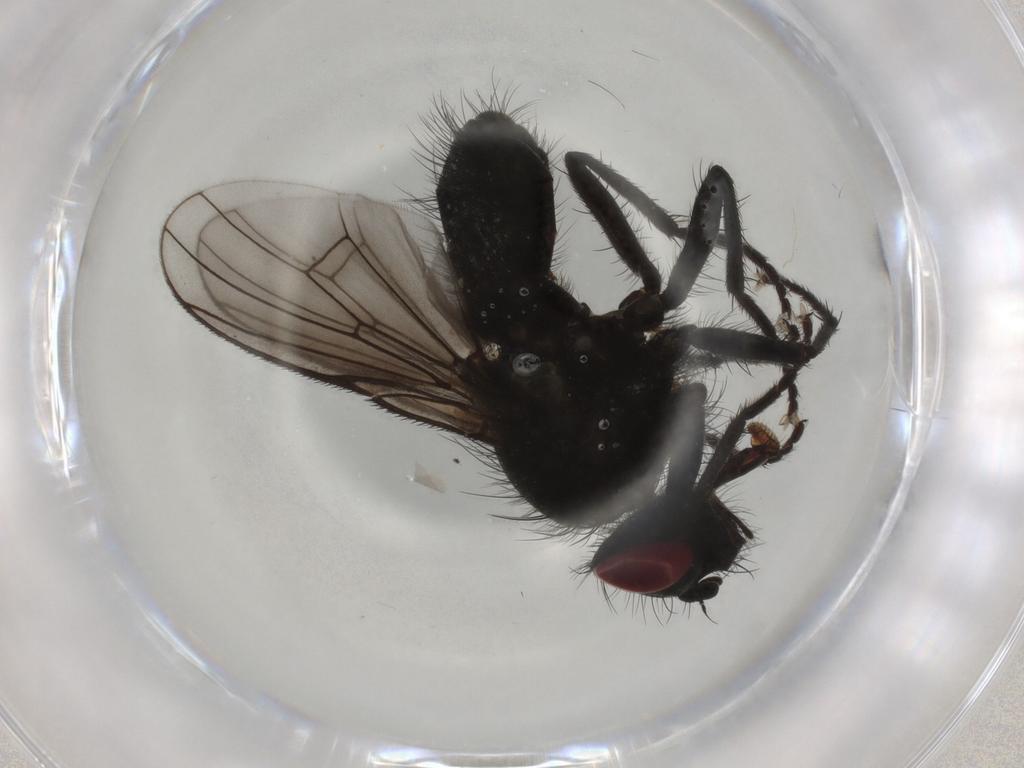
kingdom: Animalia
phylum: Arthropoda
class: Insecta
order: Diptera
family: Muscidae
